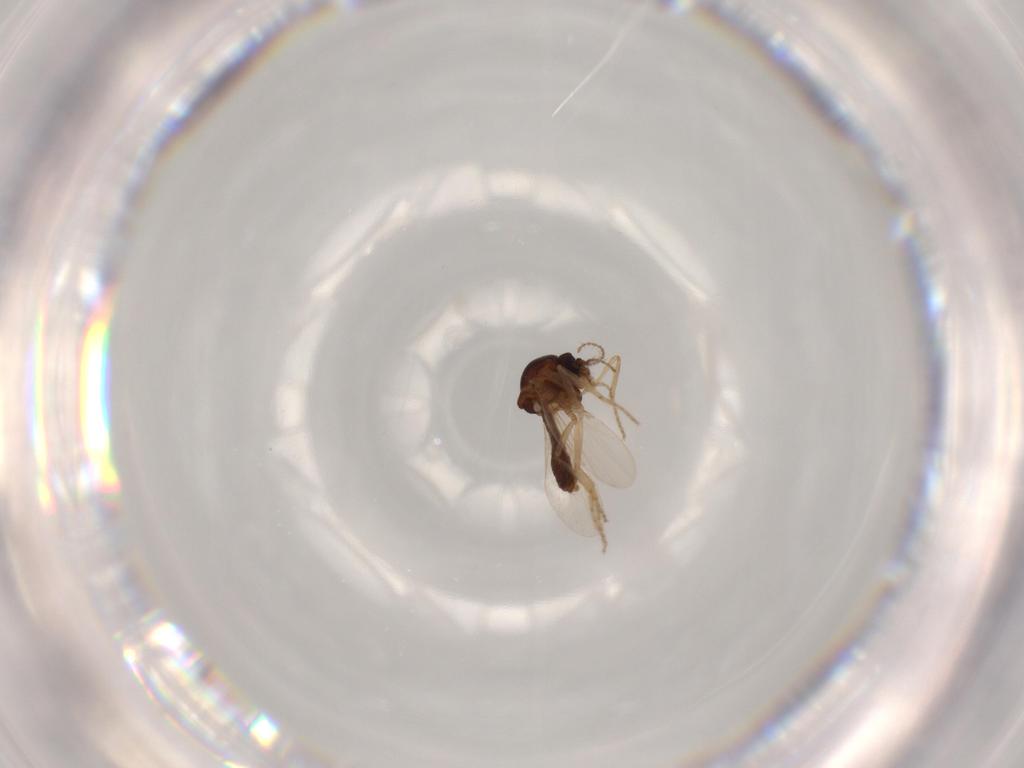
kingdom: Animalia
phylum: Arthropoda
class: Insecta
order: Diptera
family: Ceratopogonidae
